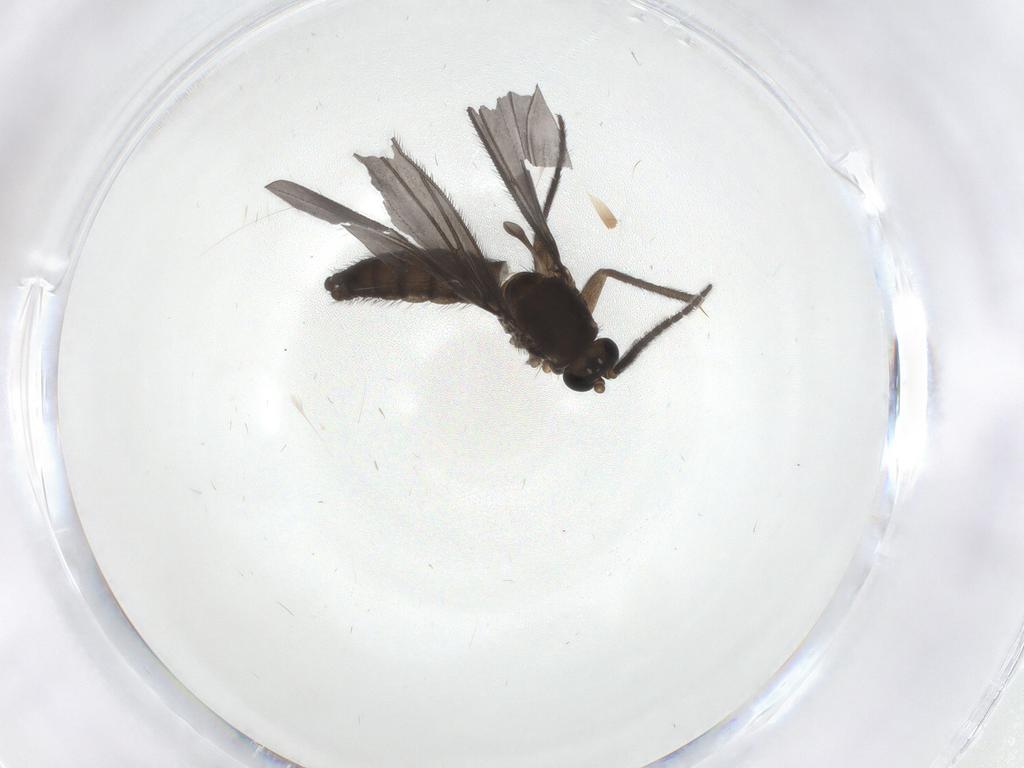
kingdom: Animalia
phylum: Arthropoda
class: Insecta
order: Diptera
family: Sciaridae
